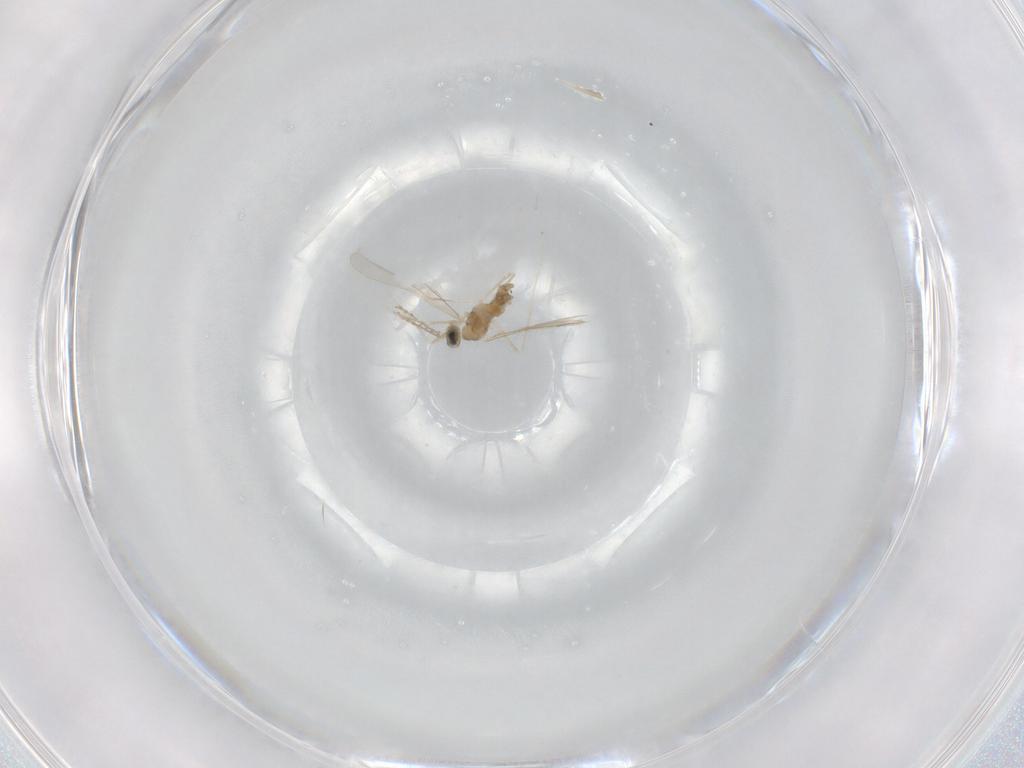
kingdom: Animalia
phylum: Arthropoda
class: Insecta
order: Diptera
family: Cecidomyiidae
